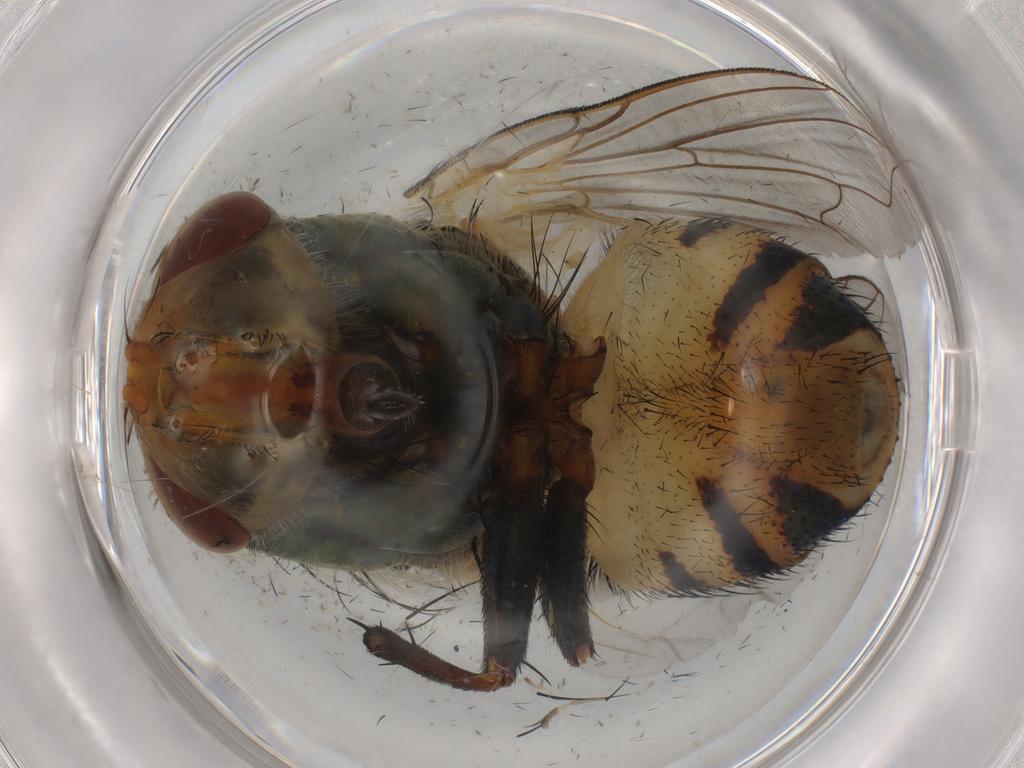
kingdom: Animalia
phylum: Arthropoda
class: Insecta
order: Diptera
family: Calliphoridae
